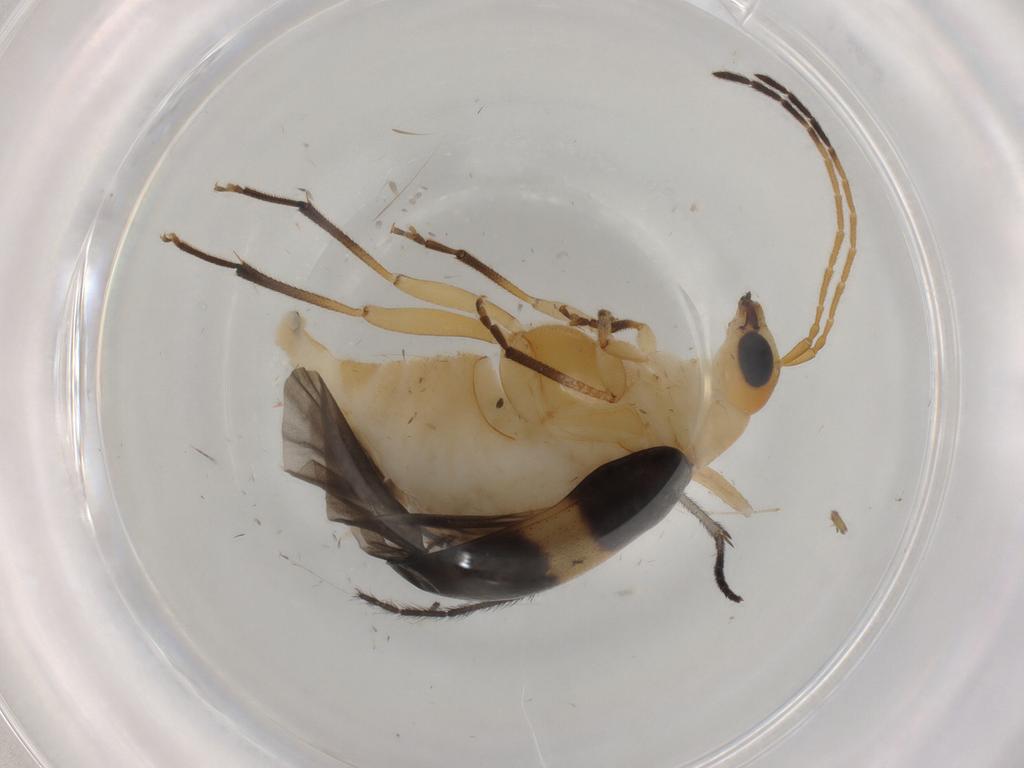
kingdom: Animalia
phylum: Arthropoda
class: Insecta
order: Coleoptera
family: Chrysomelidae
